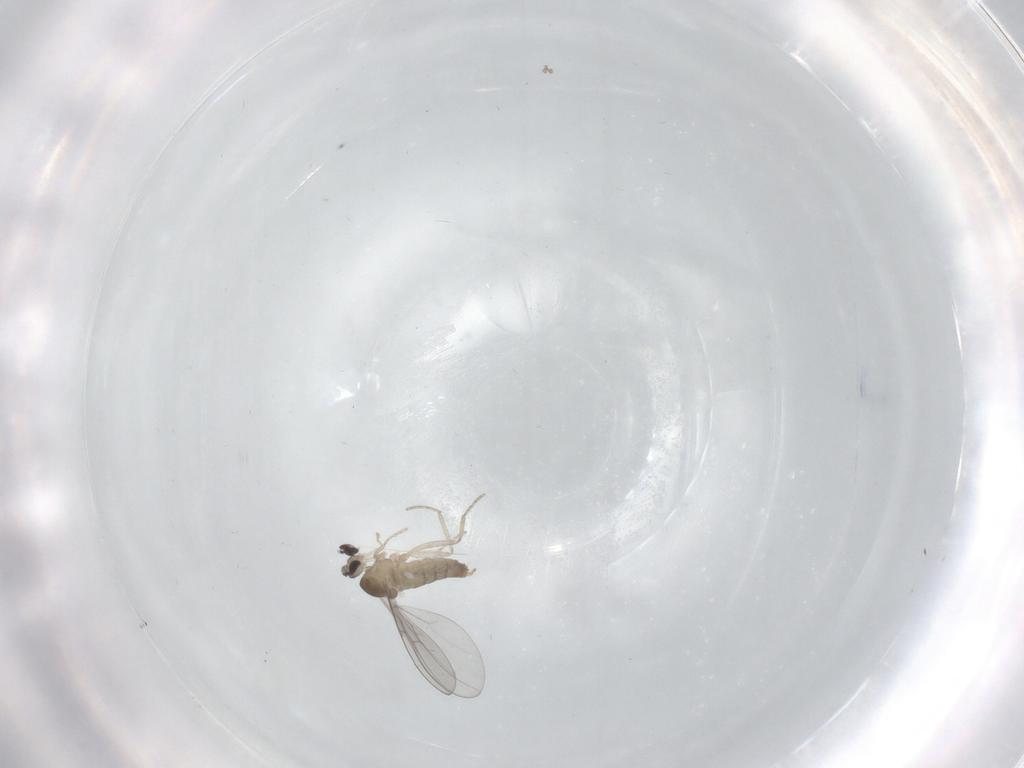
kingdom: Animalia
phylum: Arthropoda
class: Insecta
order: Diptera
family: Cecidomyiidae
